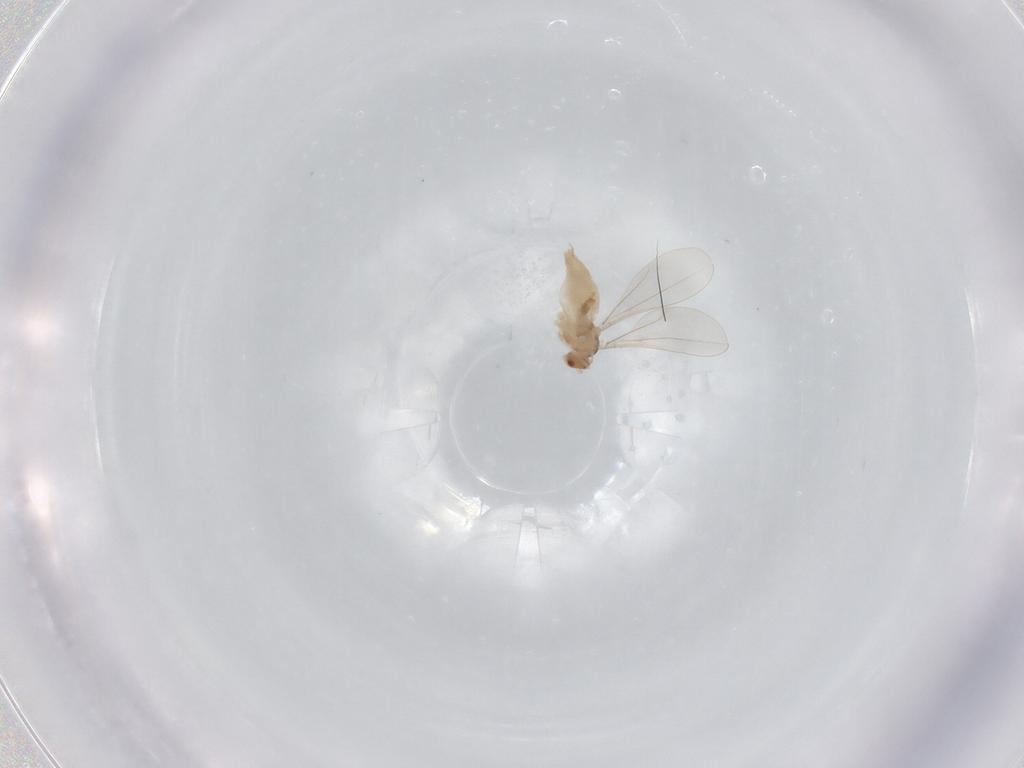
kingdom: Animalia
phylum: Arthropoda
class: Insecta
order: Diptera
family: Cecidomyiidae
